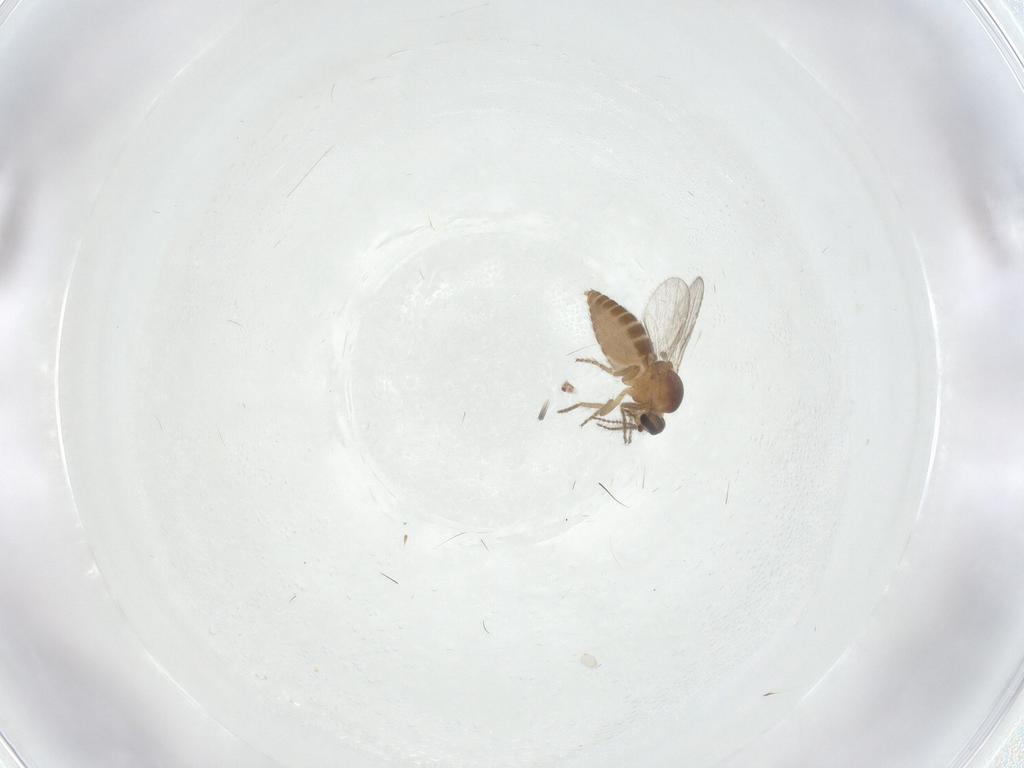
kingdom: Animalia
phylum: Arthropoda
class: Insecta
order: Diptera
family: Ceratopogonidae
